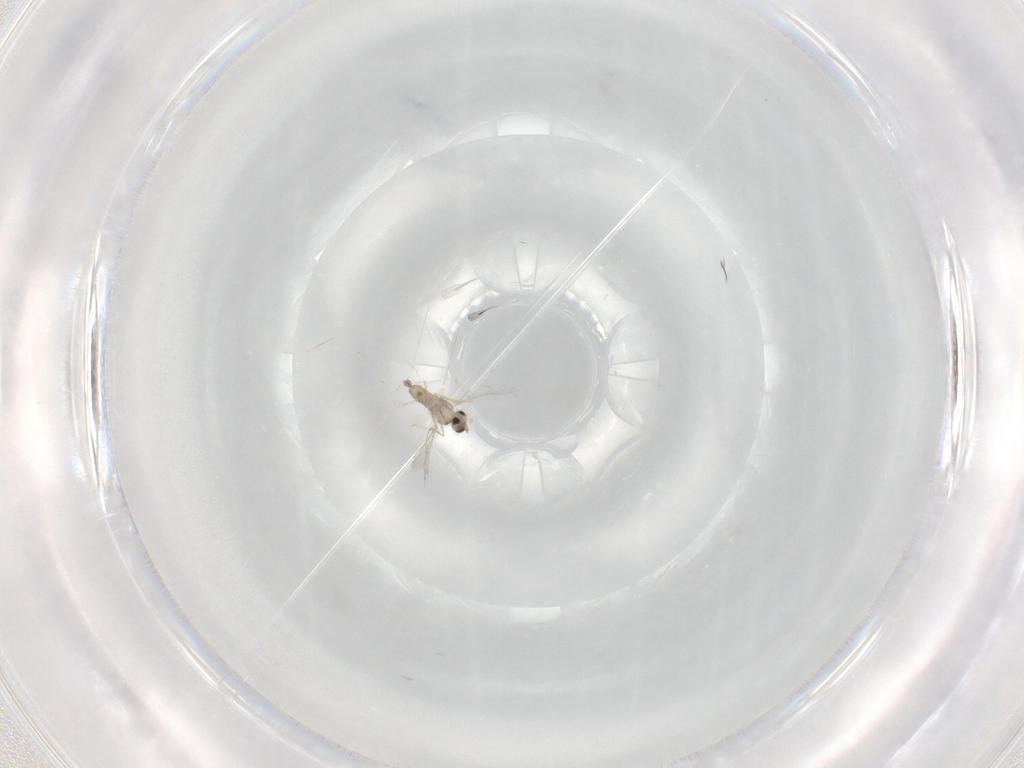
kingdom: Animalia
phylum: Arthropoda
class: Insecta
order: Diptera
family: Cecidomyiidae
